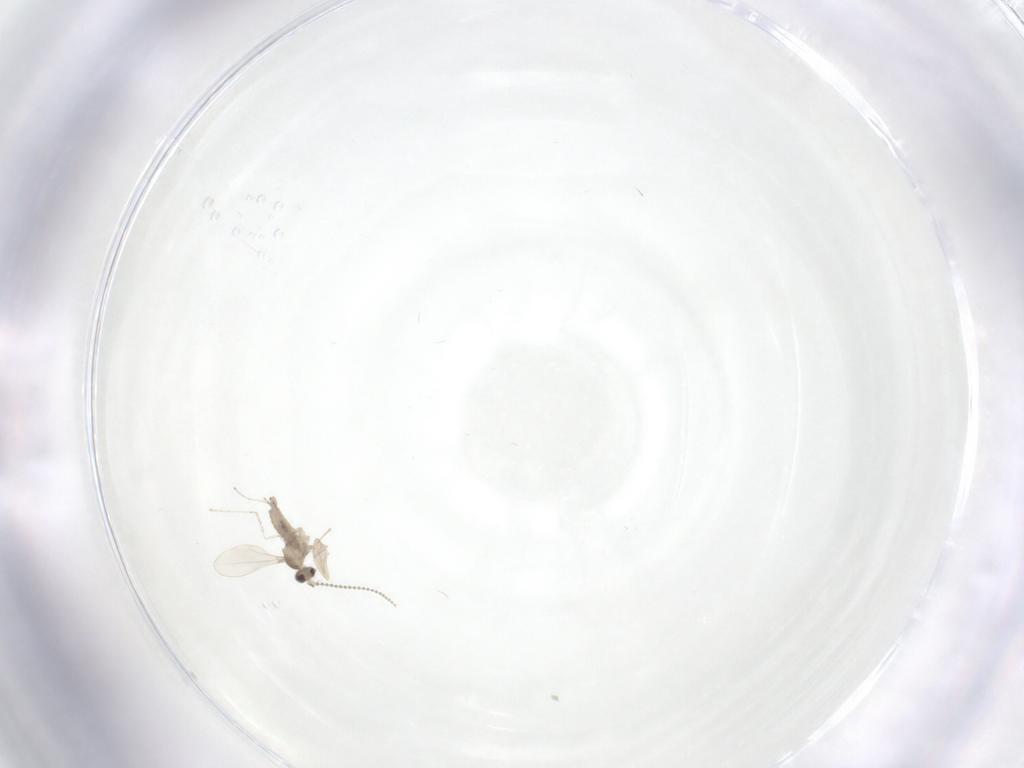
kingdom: Animalia
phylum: Arthropoda
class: Insecta
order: Diptera
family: Cecidomyiidae
